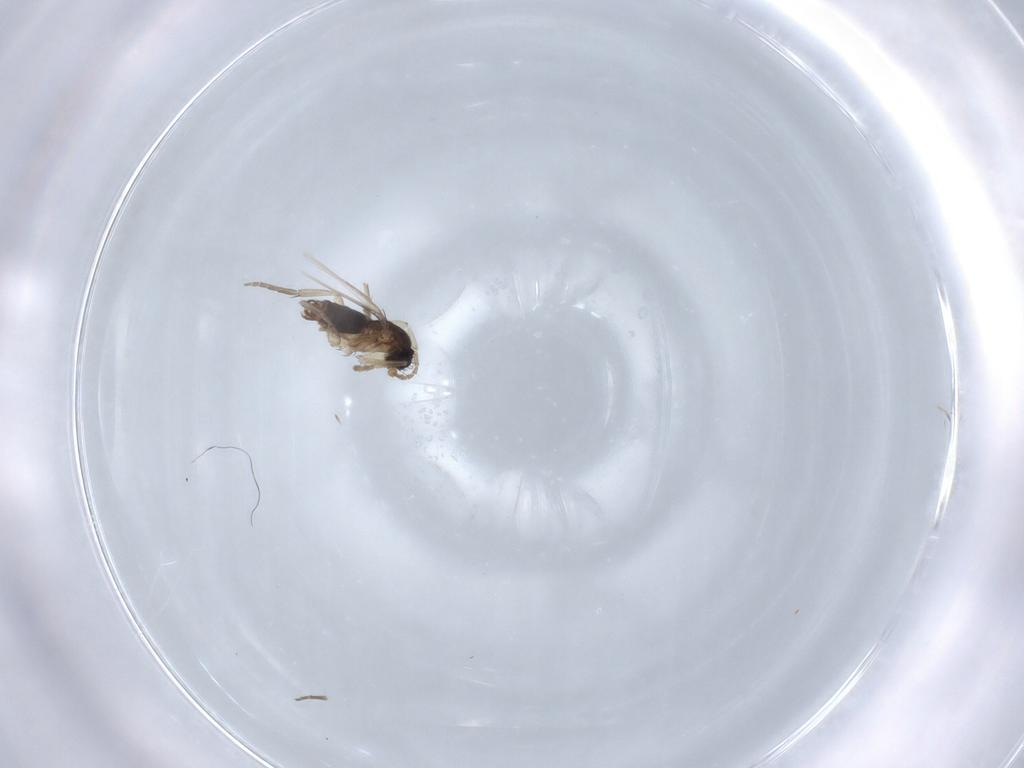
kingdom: Animalia
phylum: Arthropoda
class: Insecta
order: Diptera
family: Phoridae
